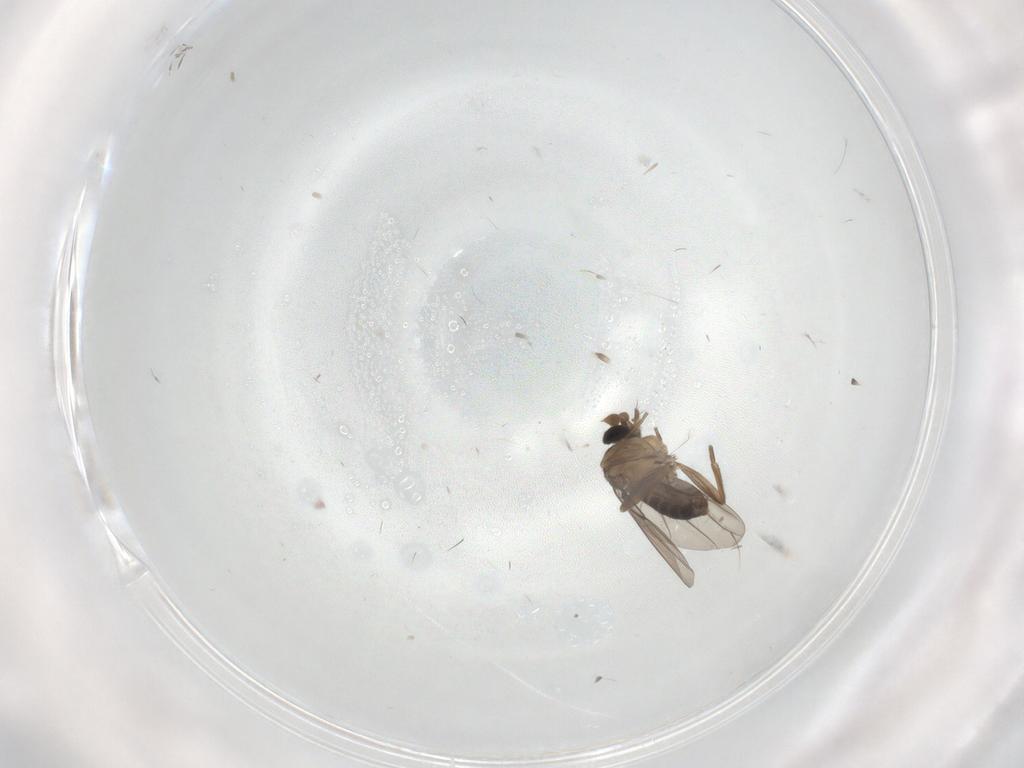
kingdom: Animalia
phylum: Arthropoda
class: Insecta
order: Diptera
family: Phoridae
